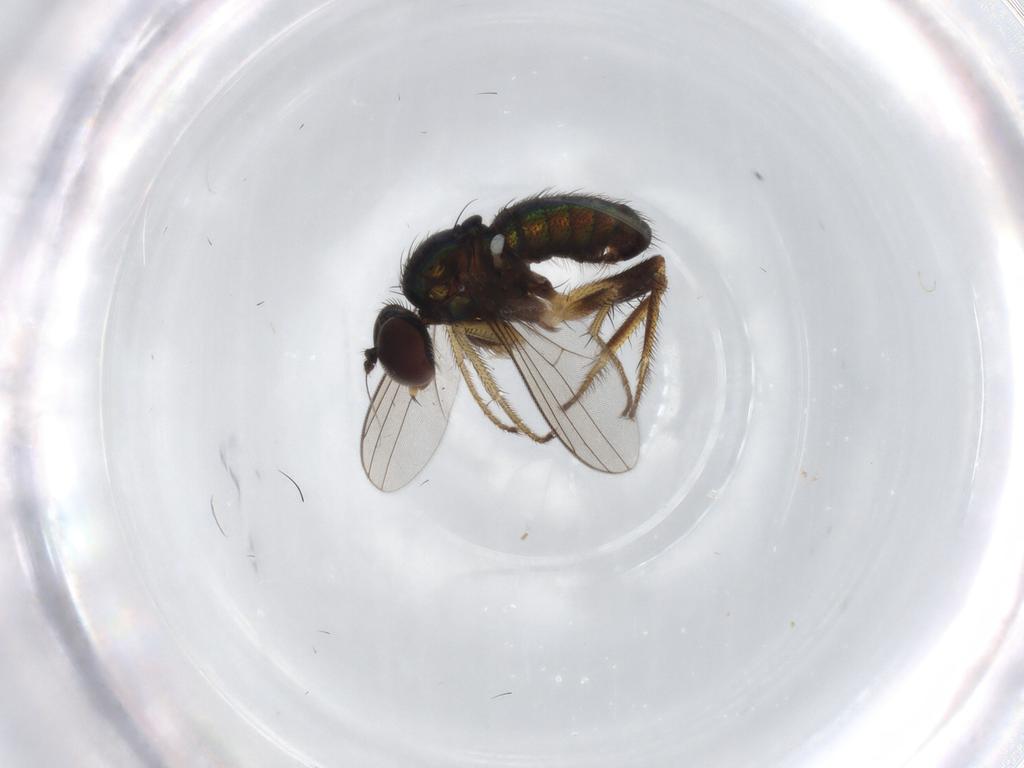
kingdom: Animalia
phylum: Arthropoda
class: Insecta
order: Diptera
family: Dolichopodidae
